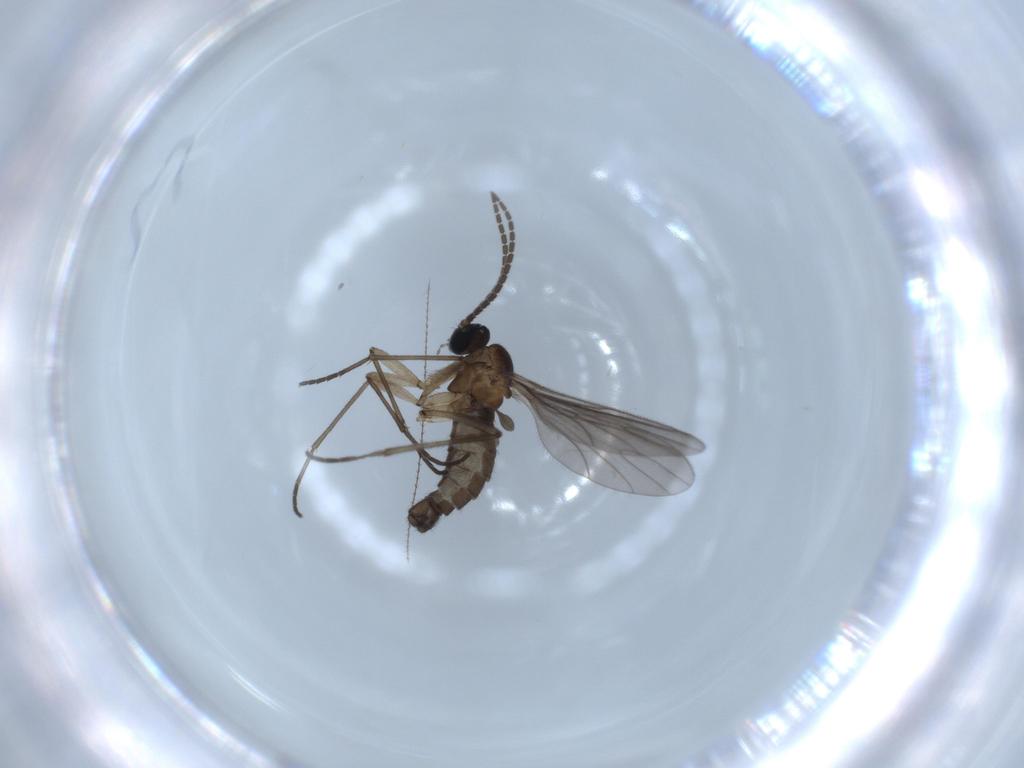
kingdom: Animalia
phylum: Arthropoda
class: Insecta
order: Diptera
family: Sciaridae
